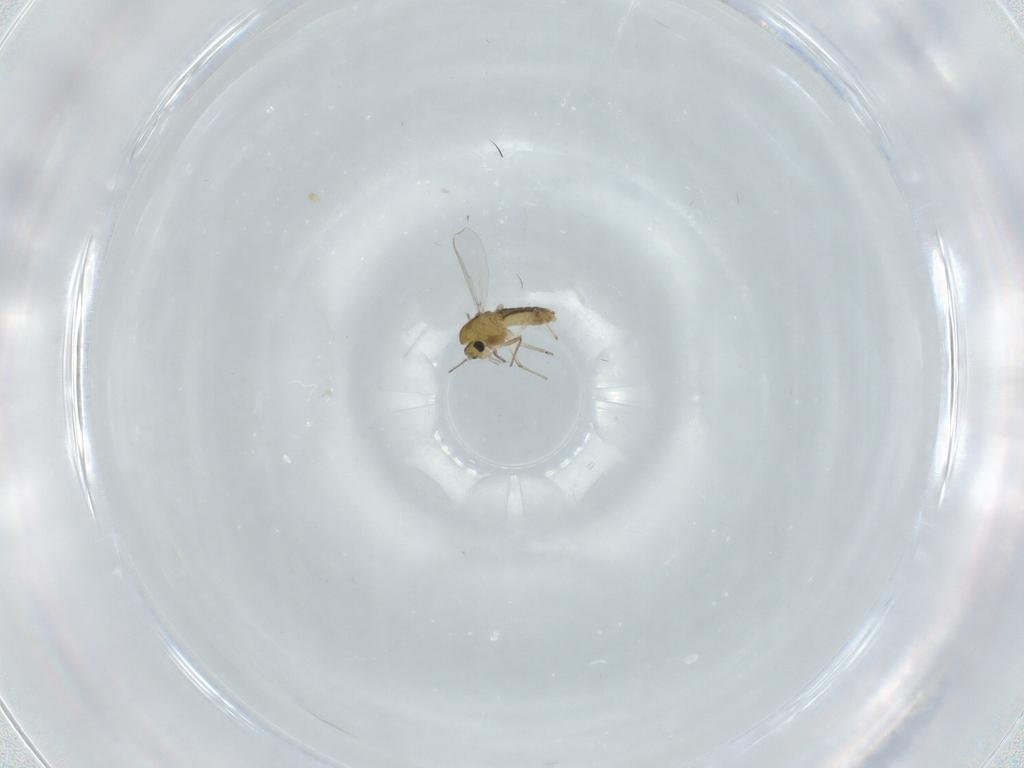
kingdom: Animalia
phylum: Arthropoda
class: Insecta
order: Diptera
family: Chironomidae
